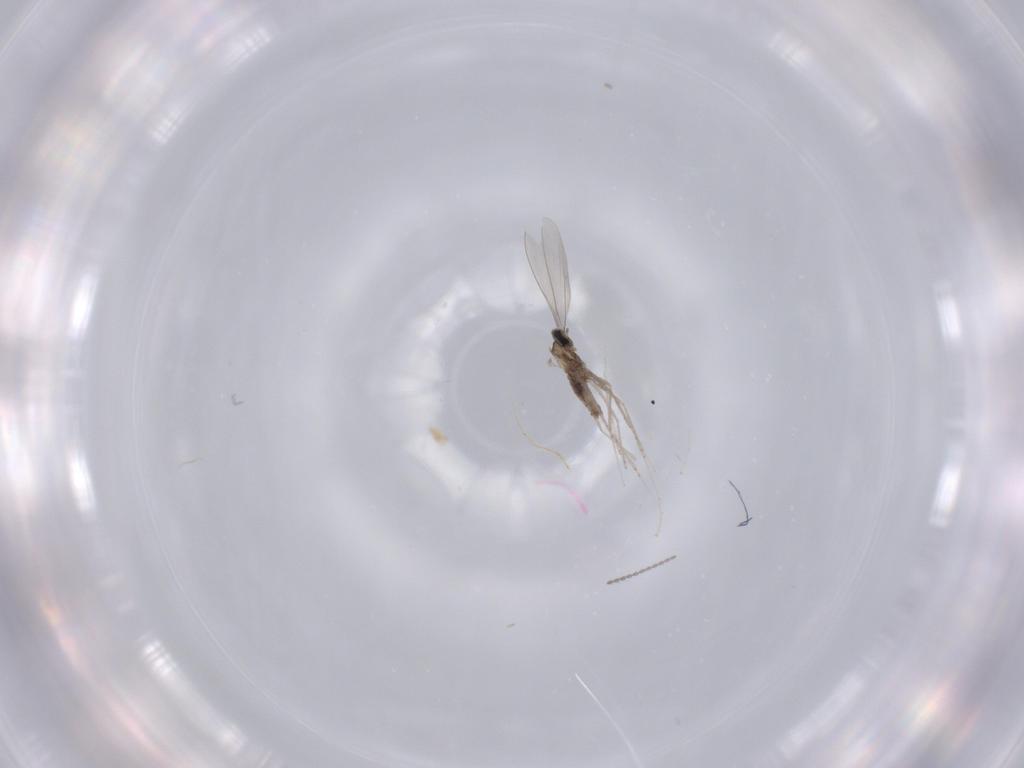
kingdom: Animalia
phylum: Arthropoda
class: Insecta
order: Diptera
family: Cecidomyiidae
